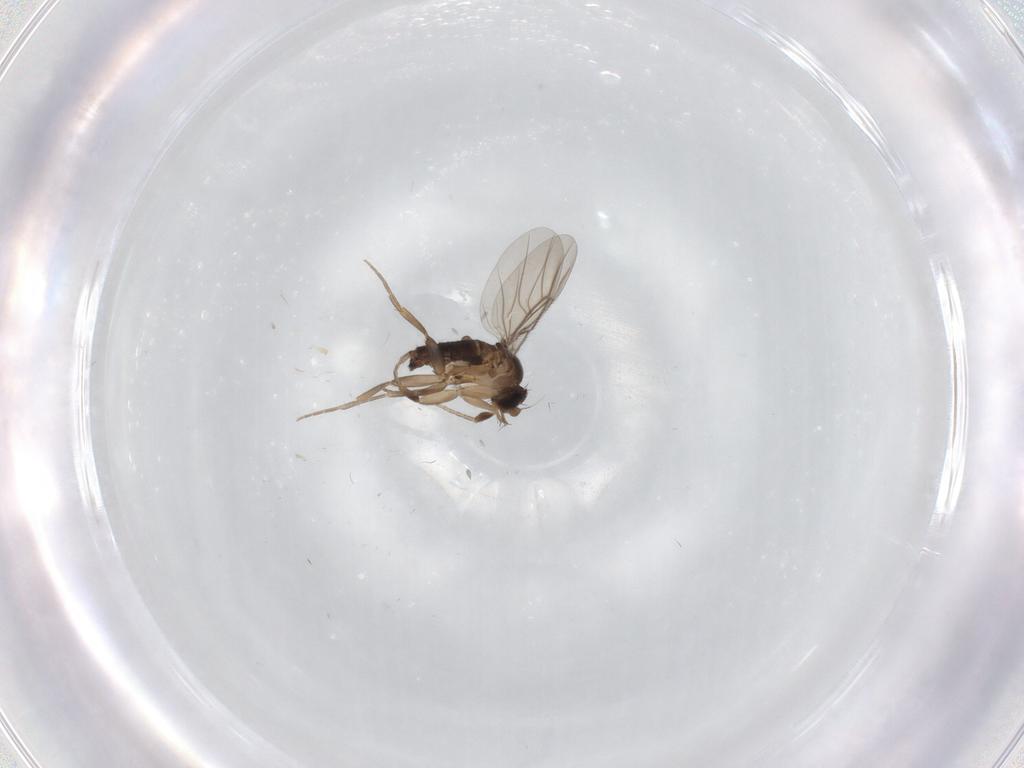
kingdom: Animalia
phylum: Arthropoda
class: Insecta
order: Diptera
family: Phoridae
